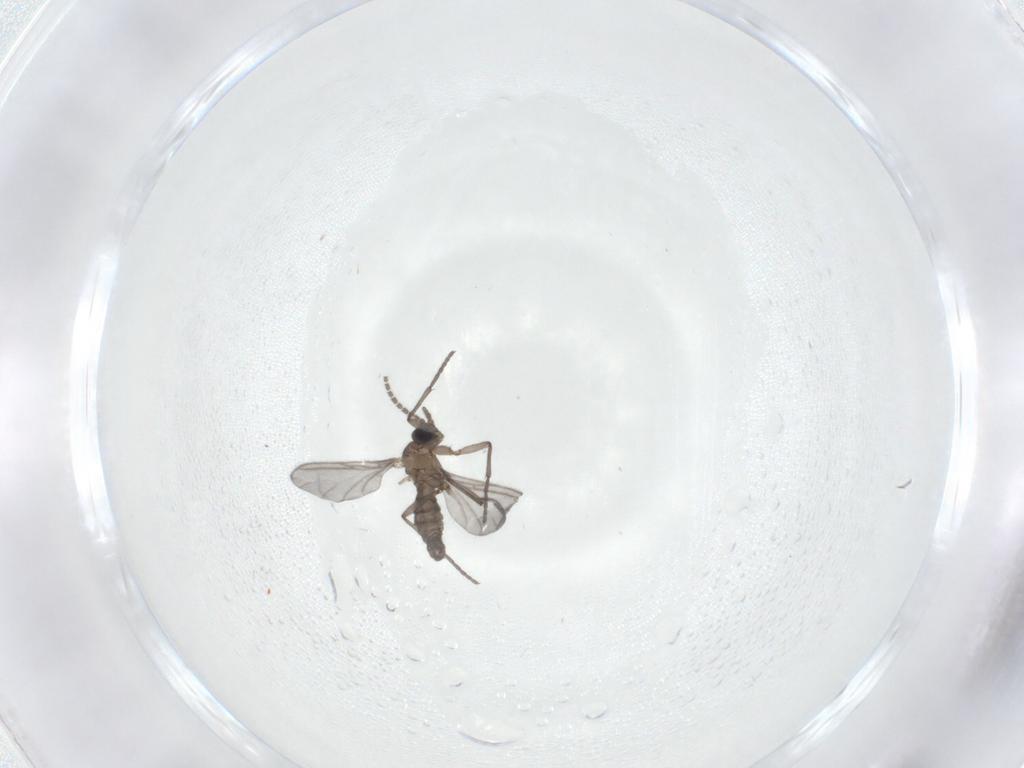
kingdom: Animalia
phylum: Arthropoda
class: Insecta
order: Diptera
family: Sciaridae
